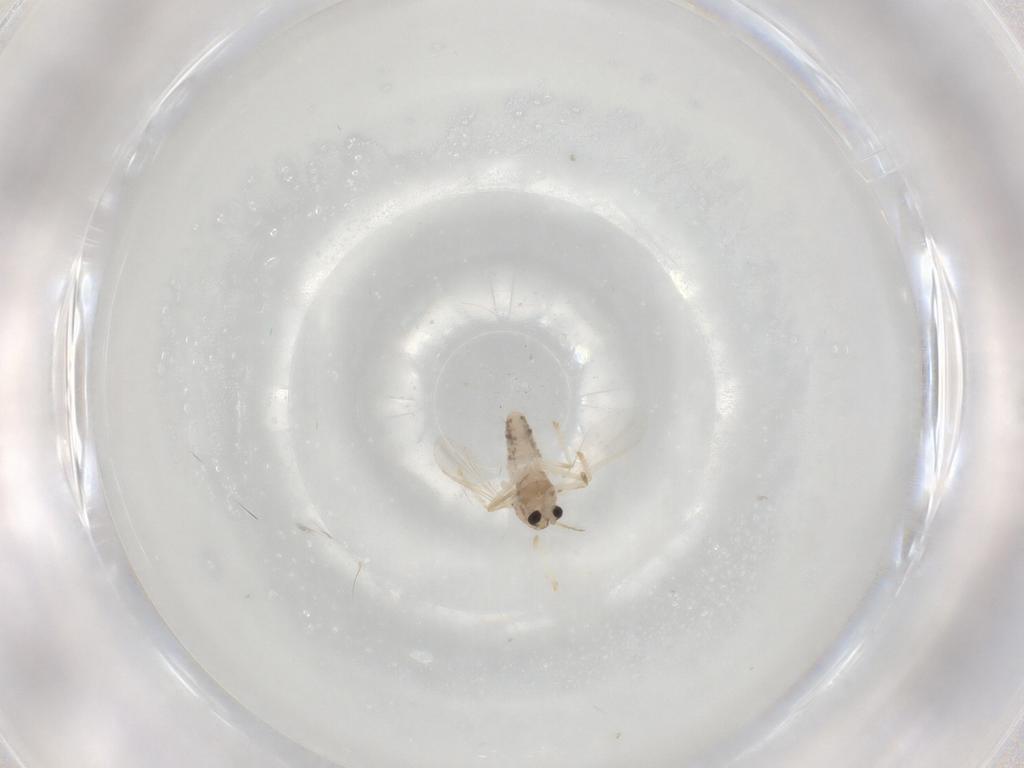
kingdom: Animalia
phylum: Arthropoda
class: Insecta
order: Diptera
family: Chironomidae
